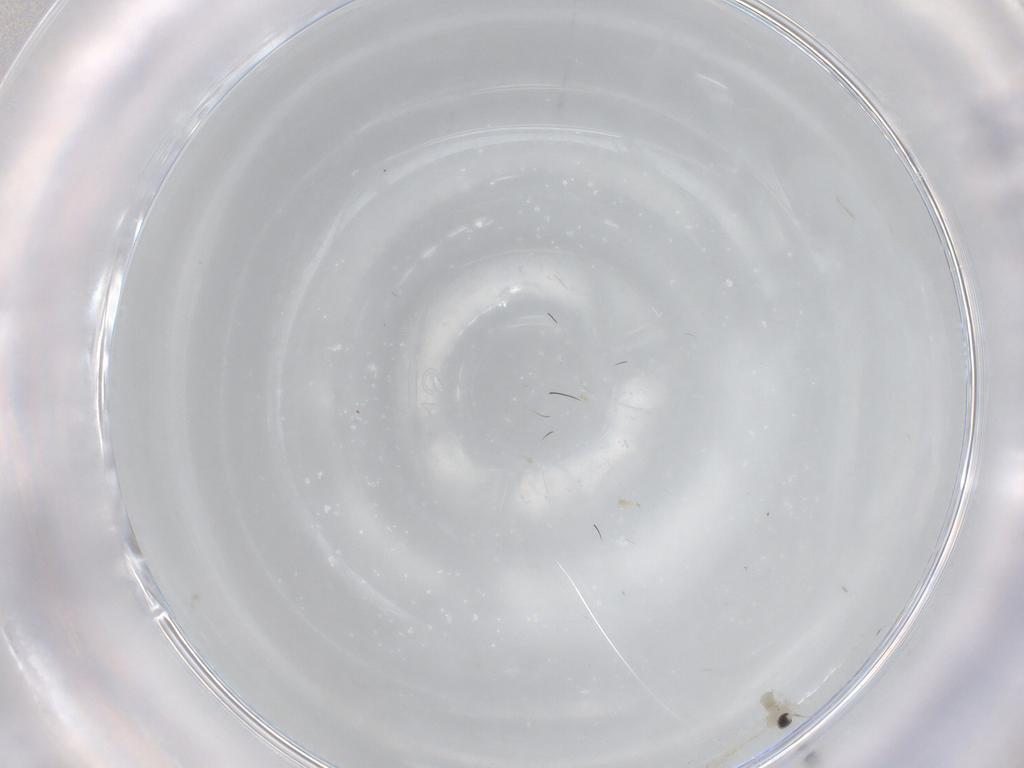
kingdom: Animalia
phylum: Arthropoda
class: Insecta
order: Diptera
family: Cecidomyiidae
